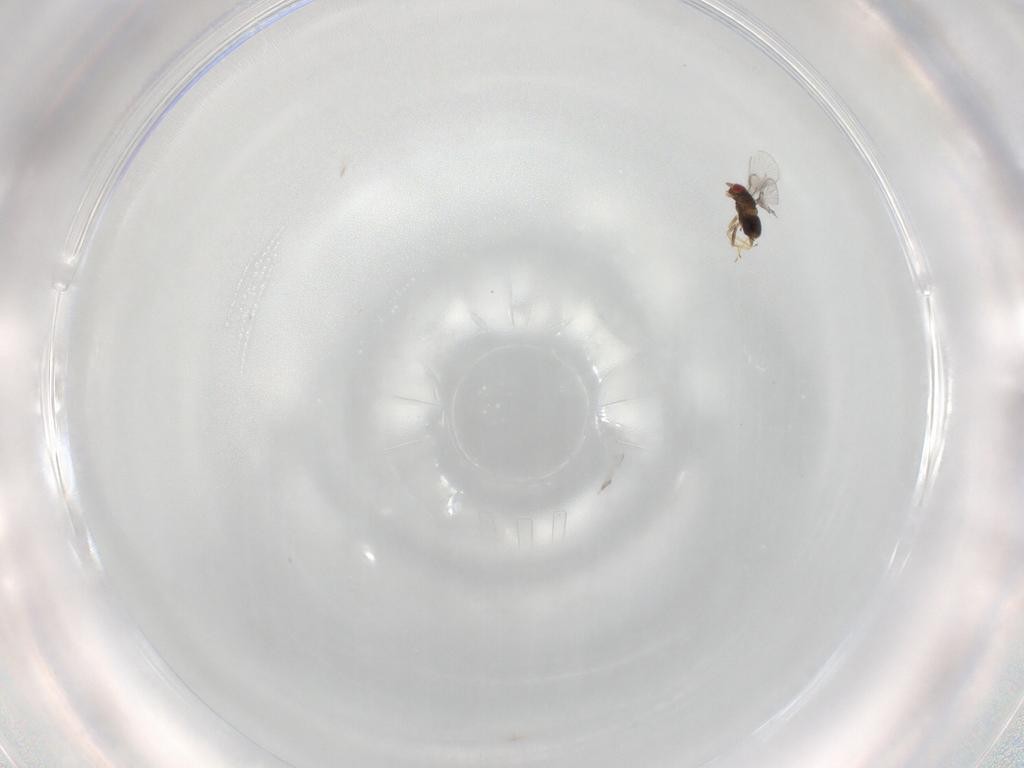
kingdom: Animalia
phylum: Arthropoda
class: Insecta
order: Hymenoptera
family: Trichogrammatidae
